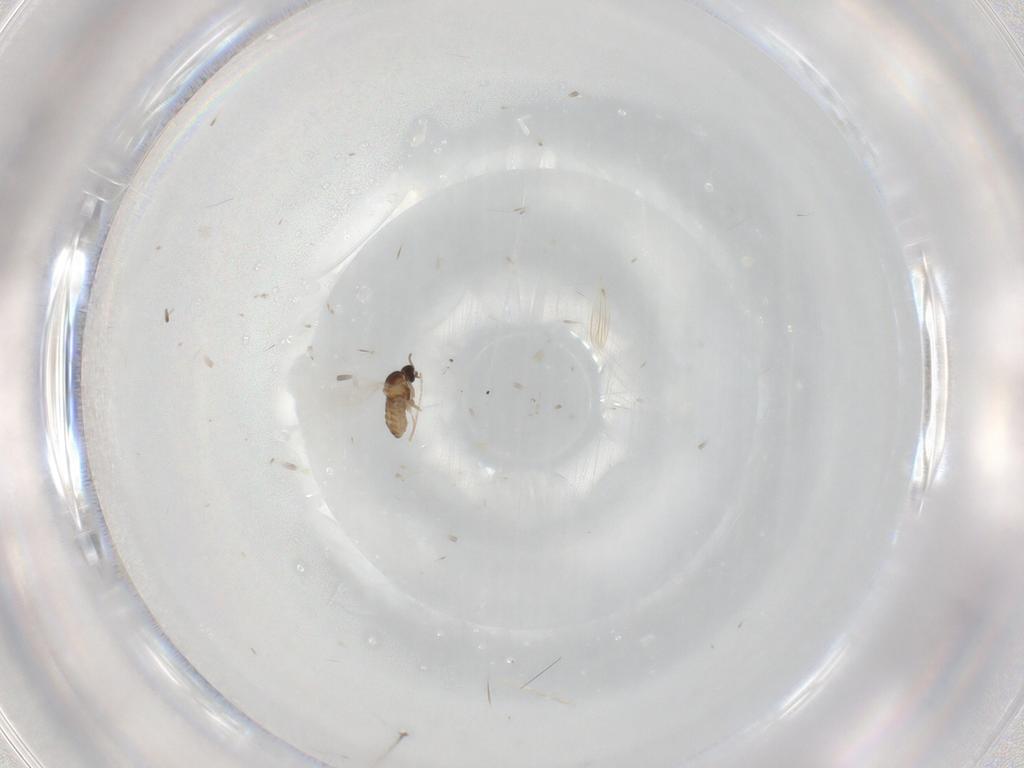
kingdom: Animalia
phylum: Arthropoda
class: Insecta
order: Diptera
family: Cecidomyiidae
